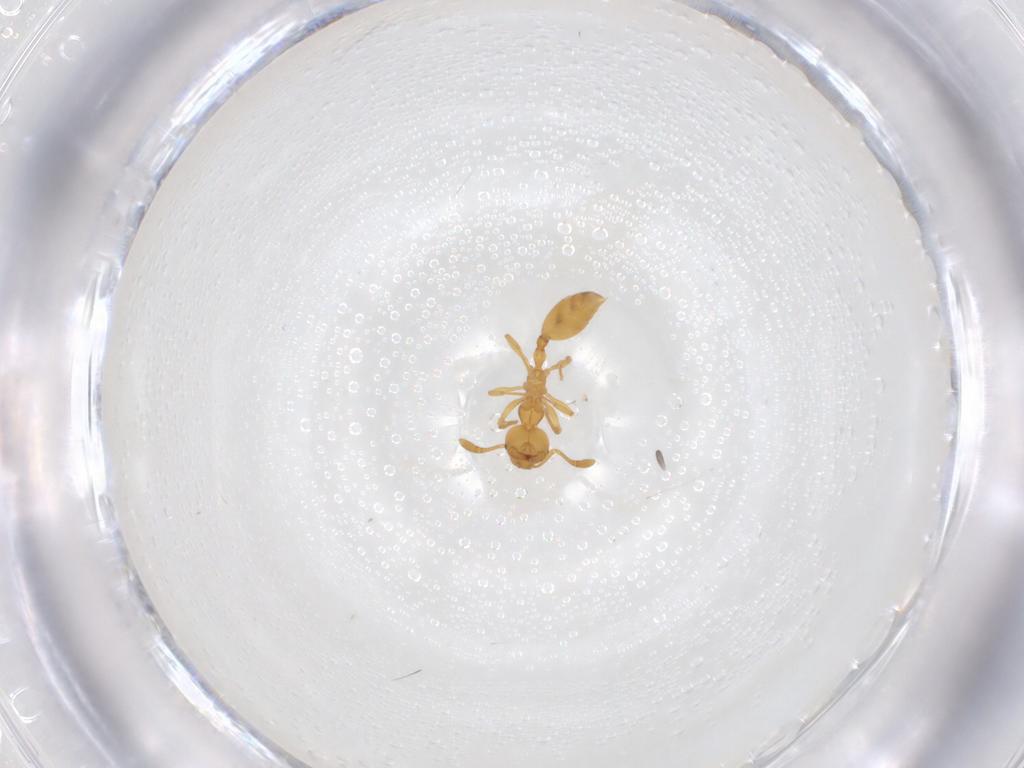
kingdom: Animalia
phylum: Arthropoda
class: Insecta
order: Hymenoptera
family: Formicidae
